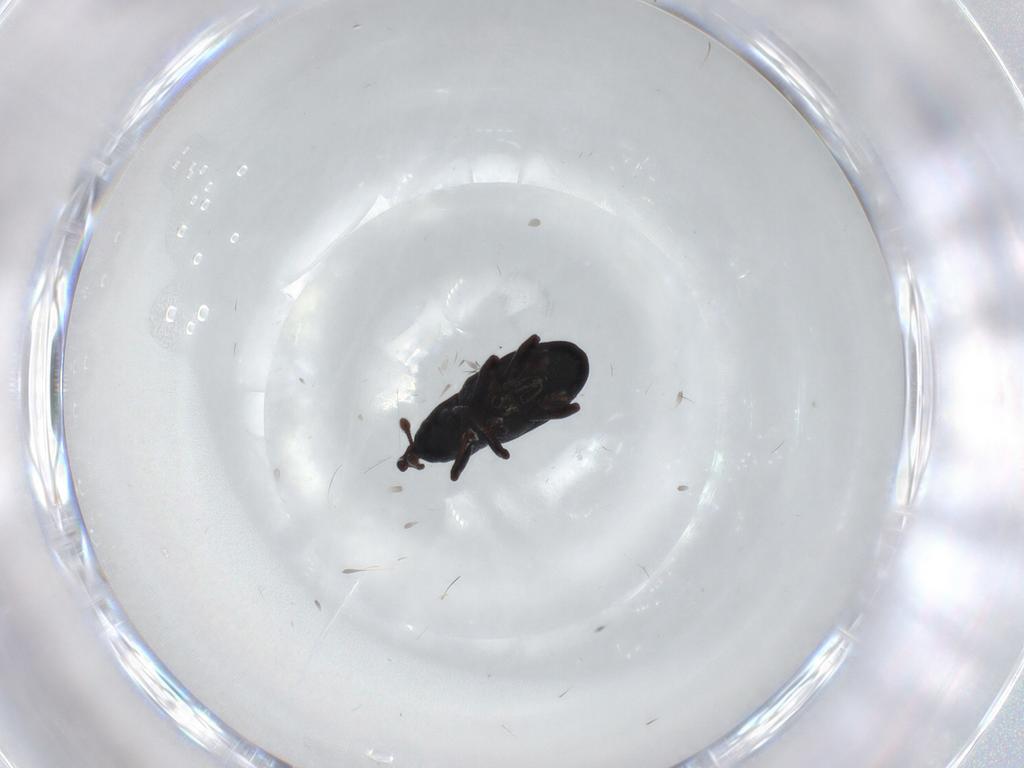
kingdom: Animalia
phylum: Arthropoda
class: Insecta
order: Coleoptera
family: Curculionidae
